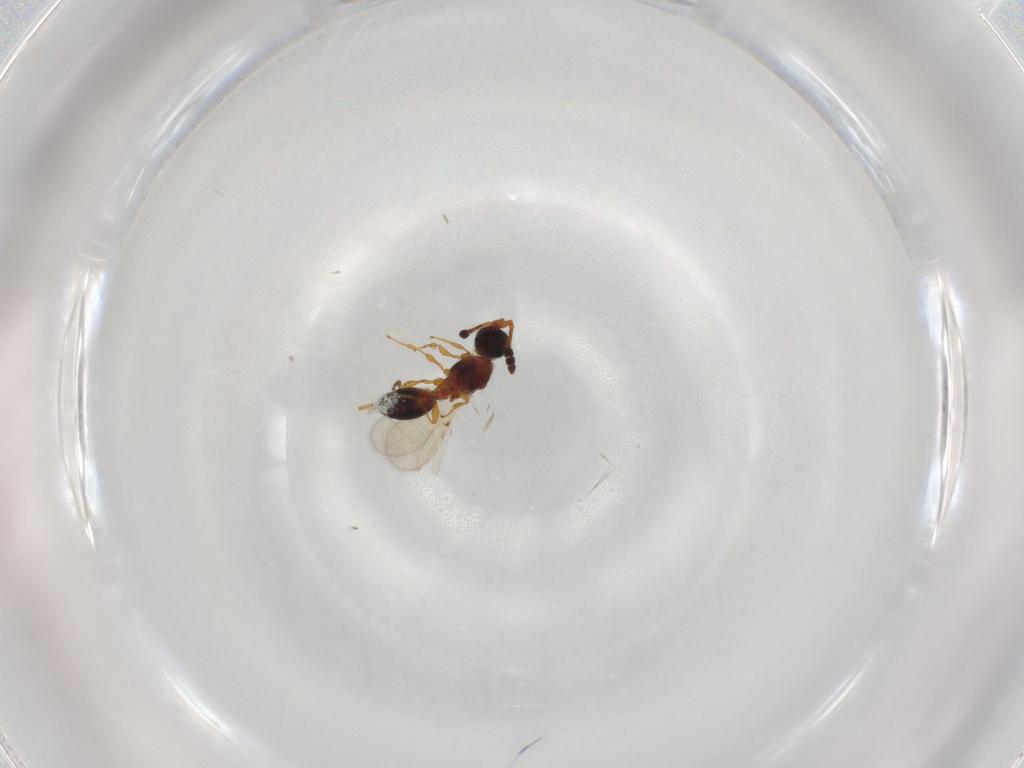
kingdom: Animalia
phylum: Arthropoda
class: Insecta
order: Hymenoptera
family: Diapriidae
